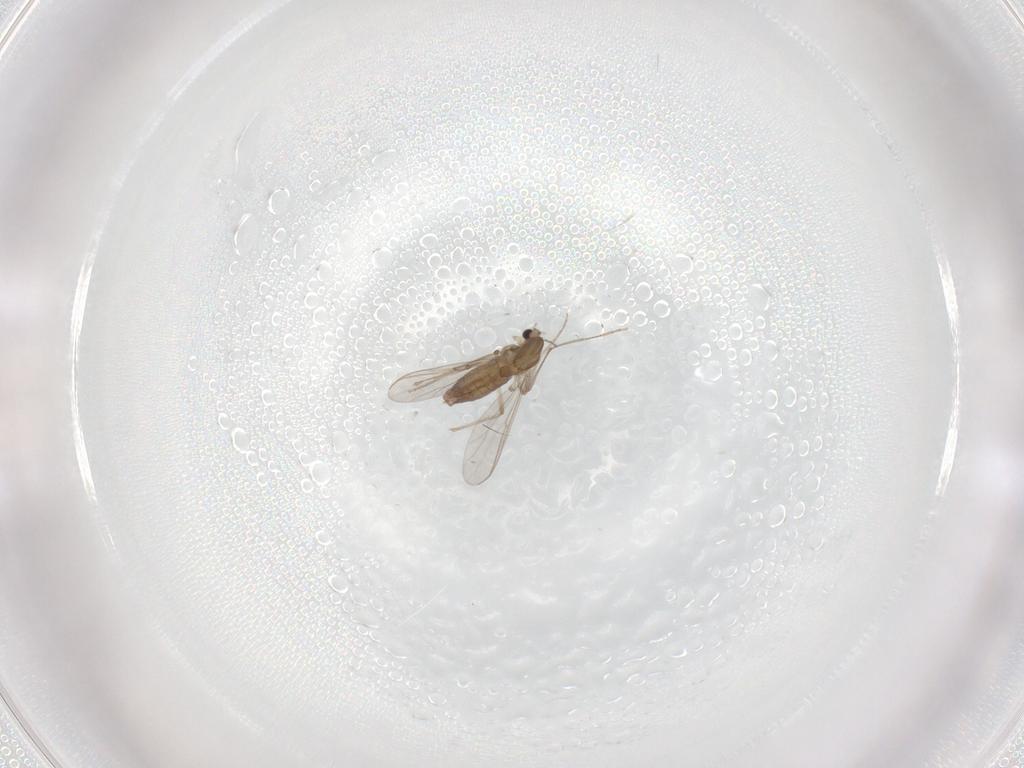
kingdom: Animalia
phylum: Arthropoda
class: Insecta
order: Diptera
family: Chironomidae
